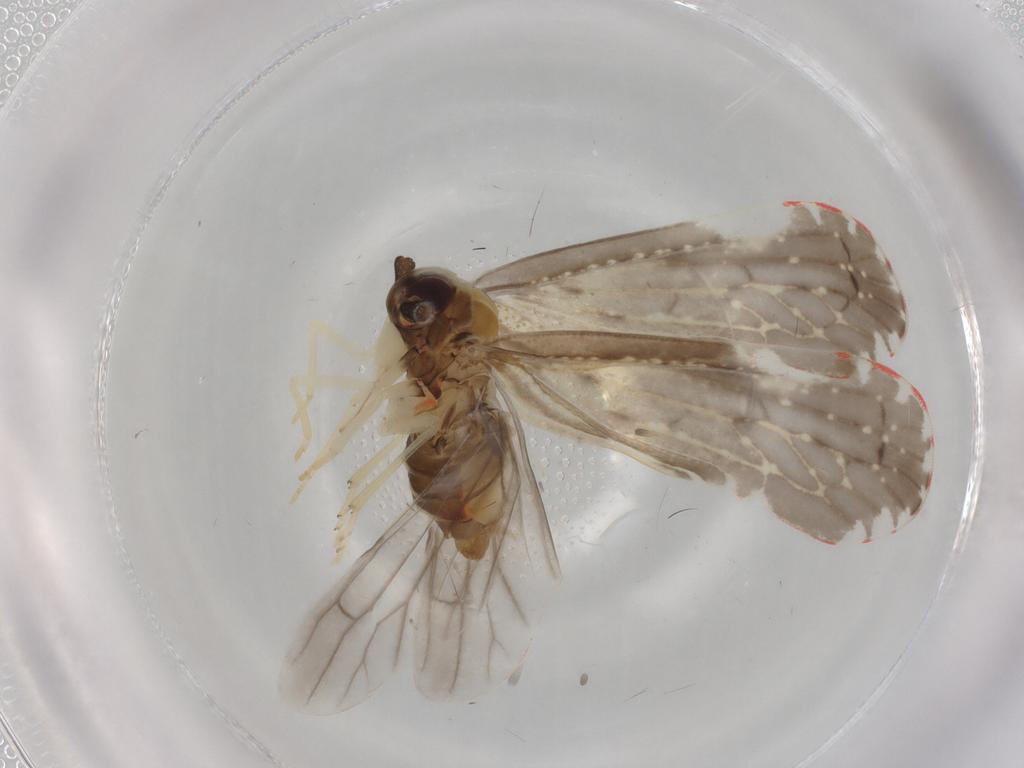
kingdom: Animalia
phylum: Arthropoda
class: Insecta
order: Hemiptera
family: Derbidae
